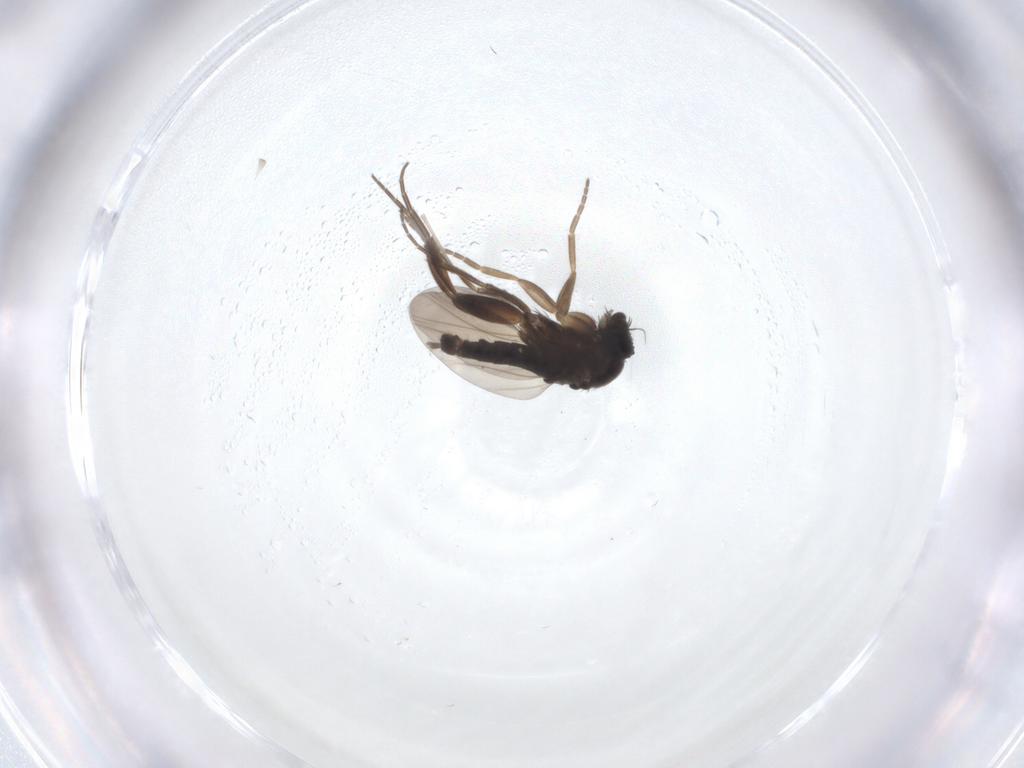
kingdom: Animalia
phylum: Arthropoda
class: Insecta
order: Diptera
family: Phoridae
